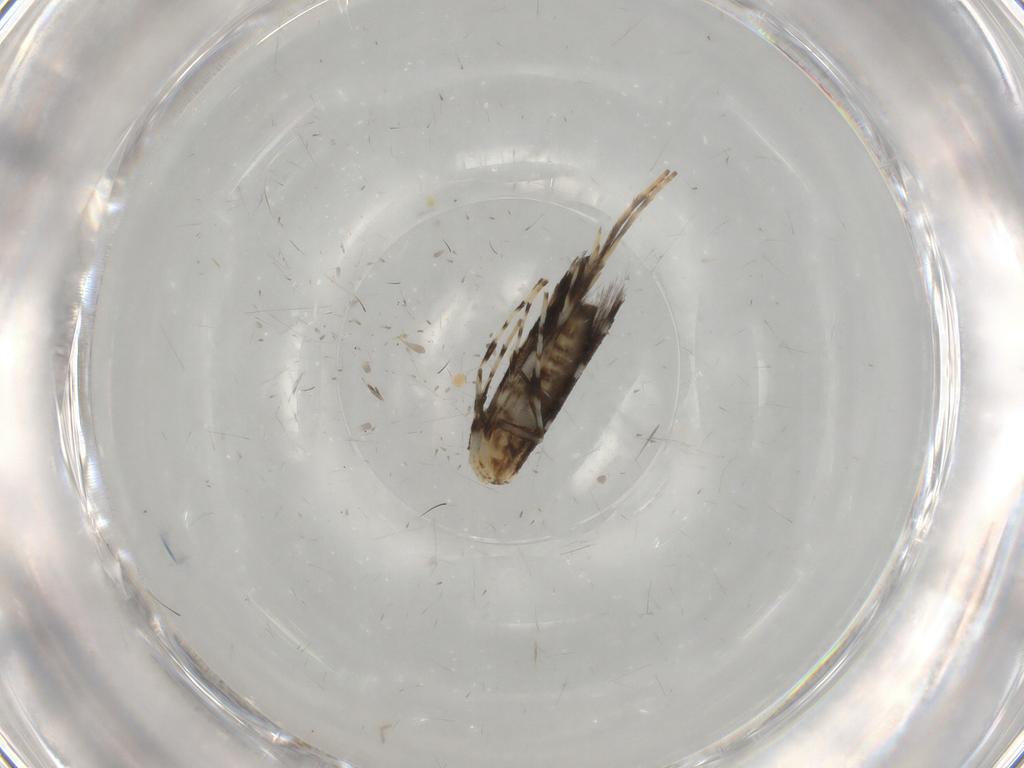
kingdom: Animalia
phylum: Arthropoda
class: Insecta
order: Lepidoptera
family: Gracillariidae
